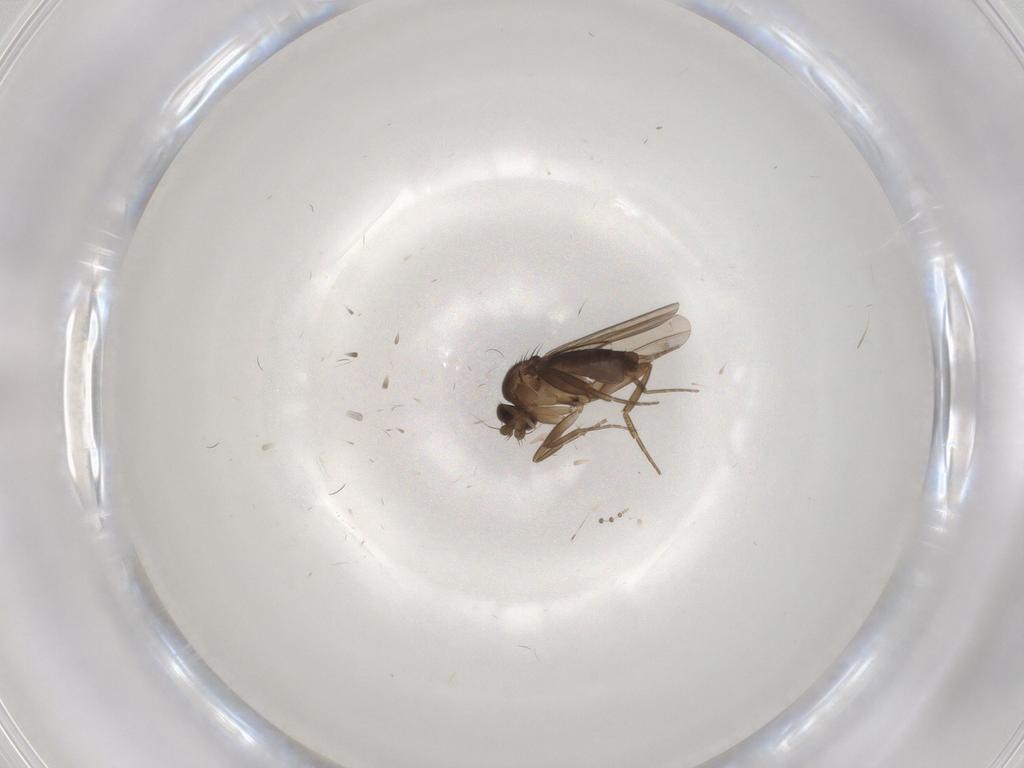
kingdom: Animalia
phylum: Arthropoda
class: Insecta
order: Diptera
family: Phoridae
